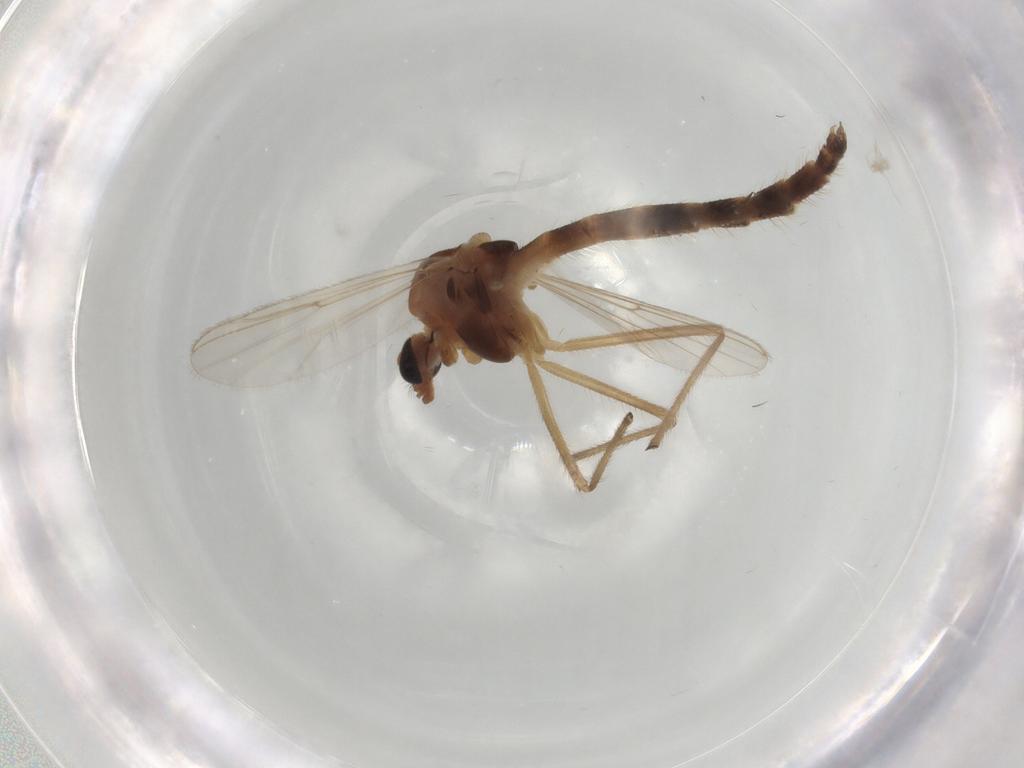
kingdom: Animalia
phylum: Arthropoda
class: Insecta
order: Diptera
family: Chironomidae
